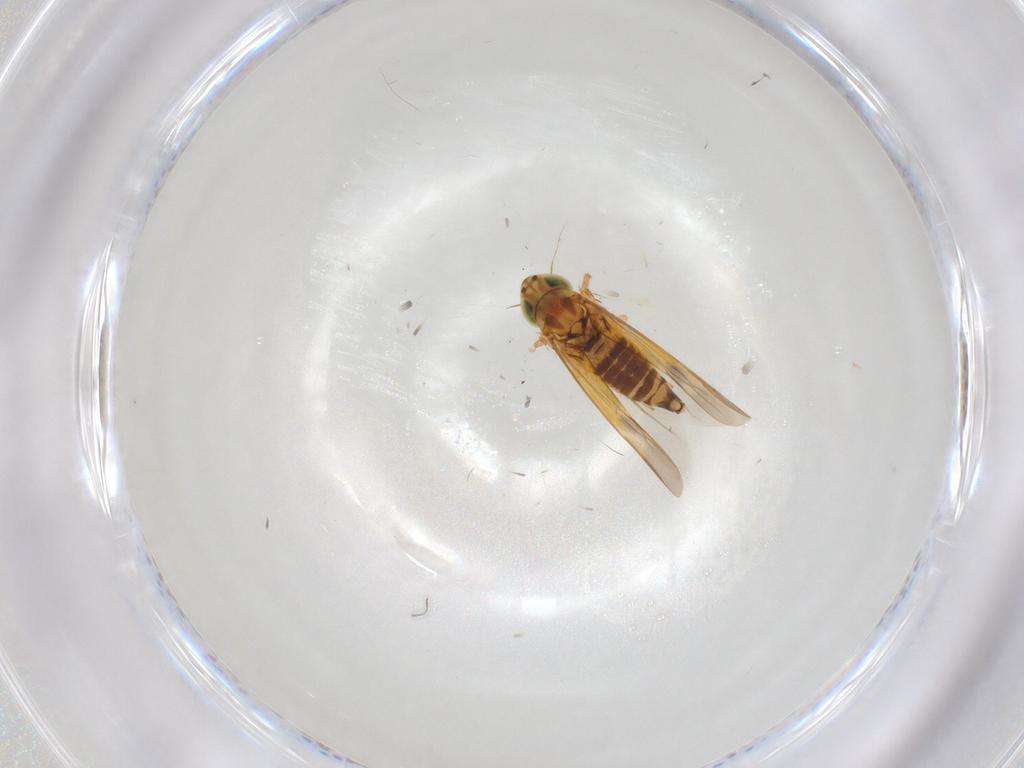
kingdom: Animalia
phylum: Arthropoda
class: Insecta
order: Hemiptera
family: Cicadellidae
